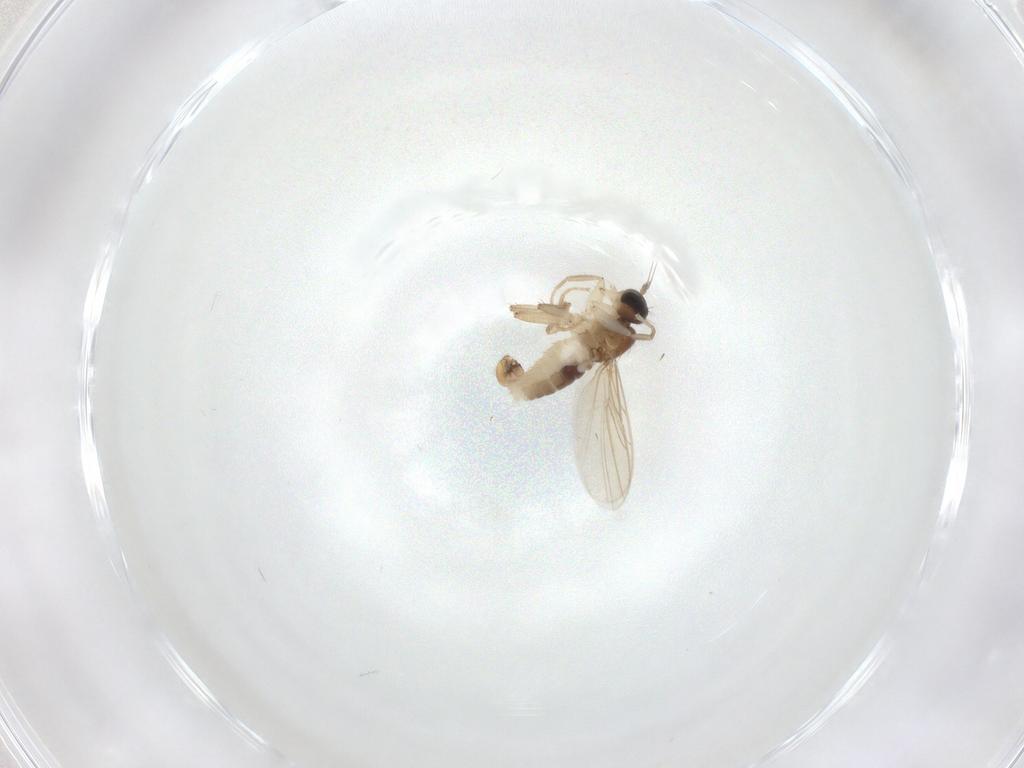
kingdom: Animalia
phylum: Arthropoda
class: Insecta
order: Diptera
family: Hybotidae
